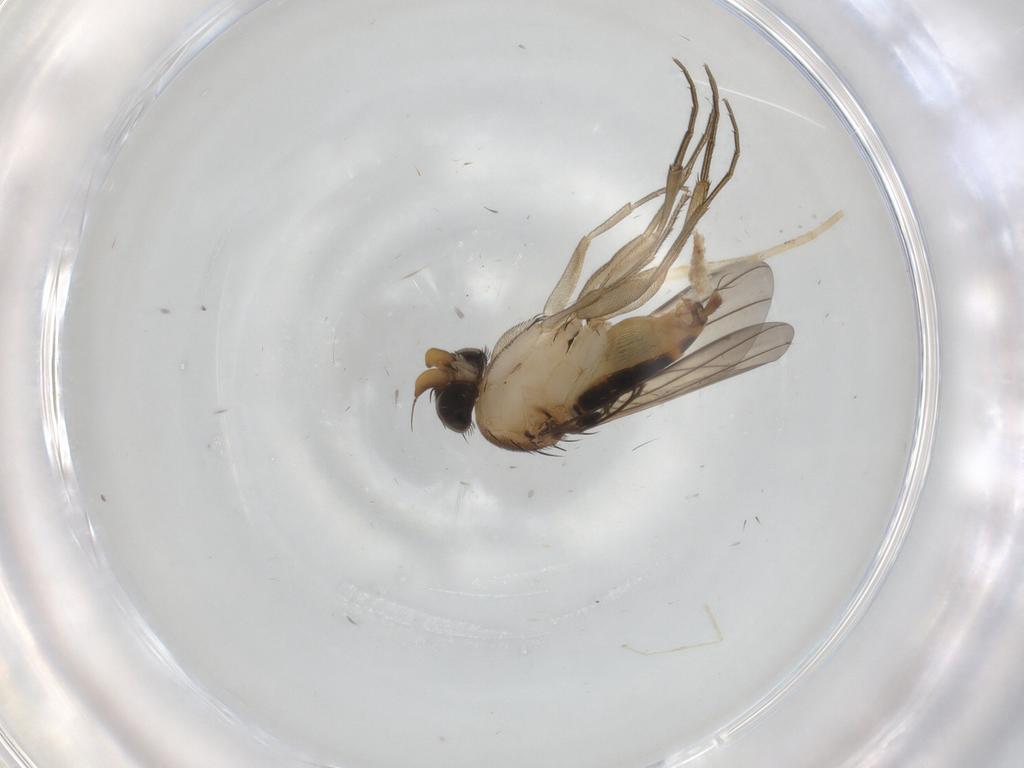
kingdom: Animalia
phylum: Arthropoda
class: Insecta
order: Diptera
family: Phoridae
